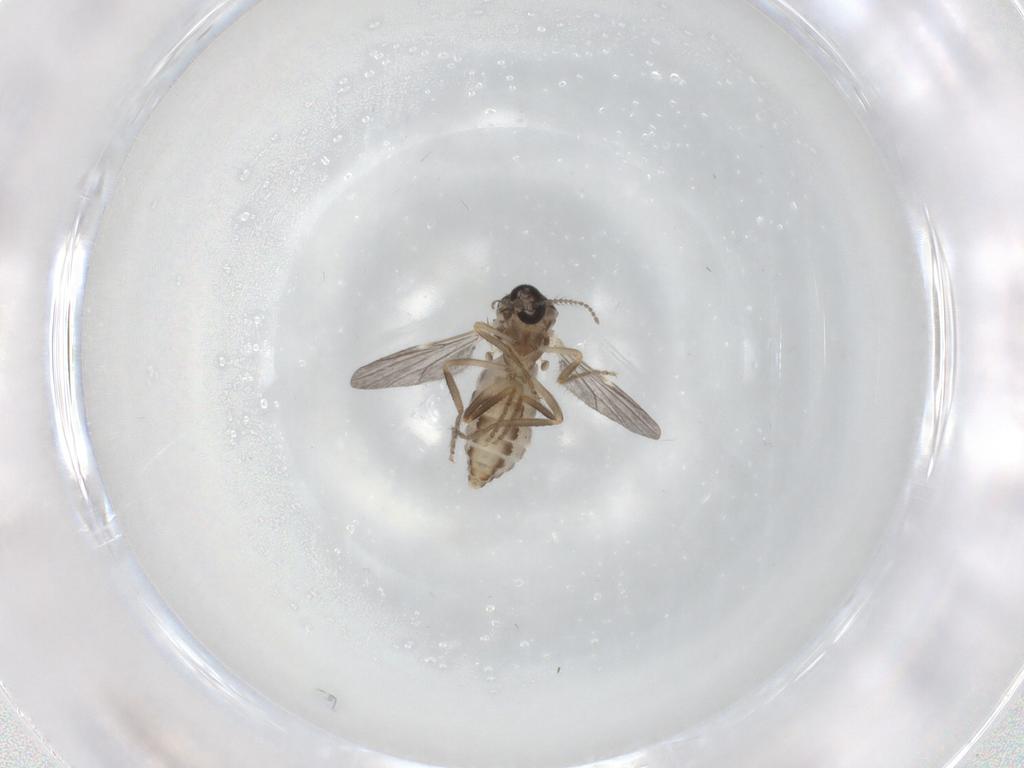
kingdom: Animalia
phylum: Arthropoda
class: Insecta
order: Diptera
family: Ceratopogonidae
